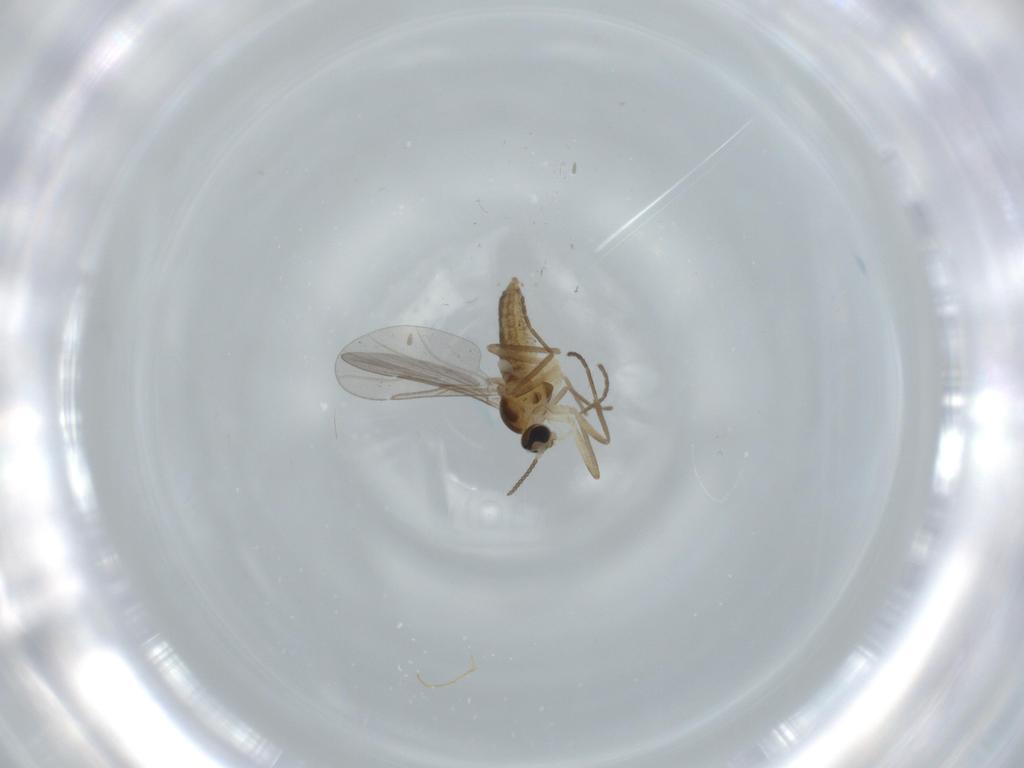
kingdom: Animalia
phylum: Arthropoda
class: Insecta
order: Diptera
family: Cecidomyiidae
